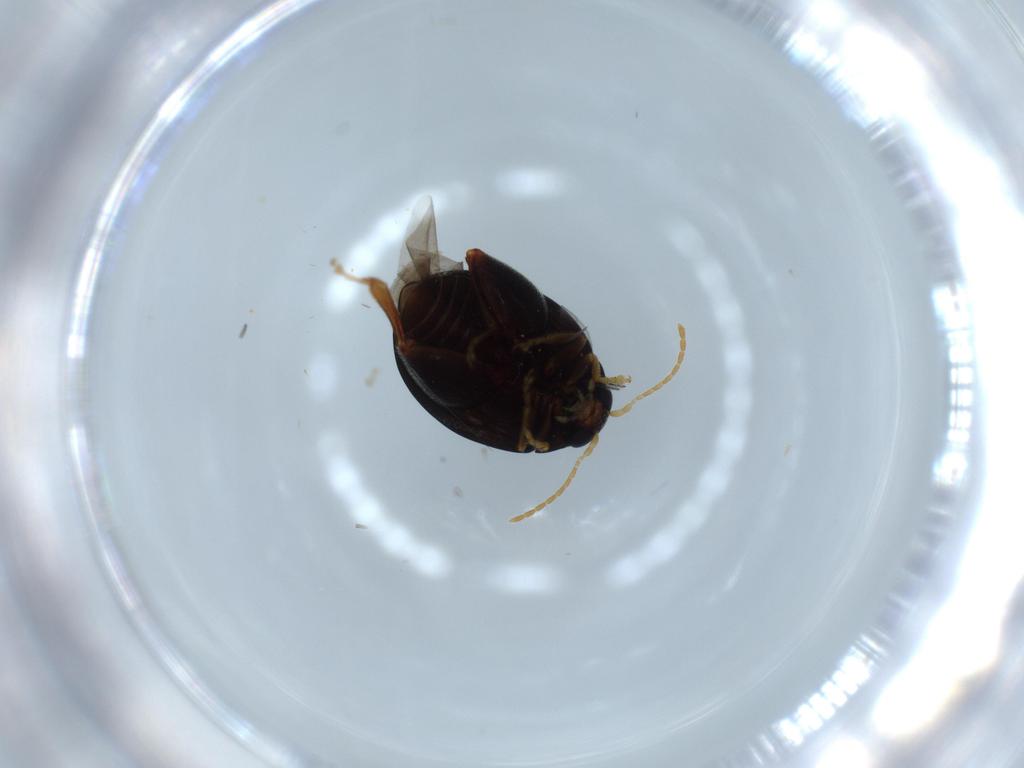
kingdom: Animalia
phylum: Arthropoda
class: Insecta
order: Coleoptera
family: Chrysomelidae
